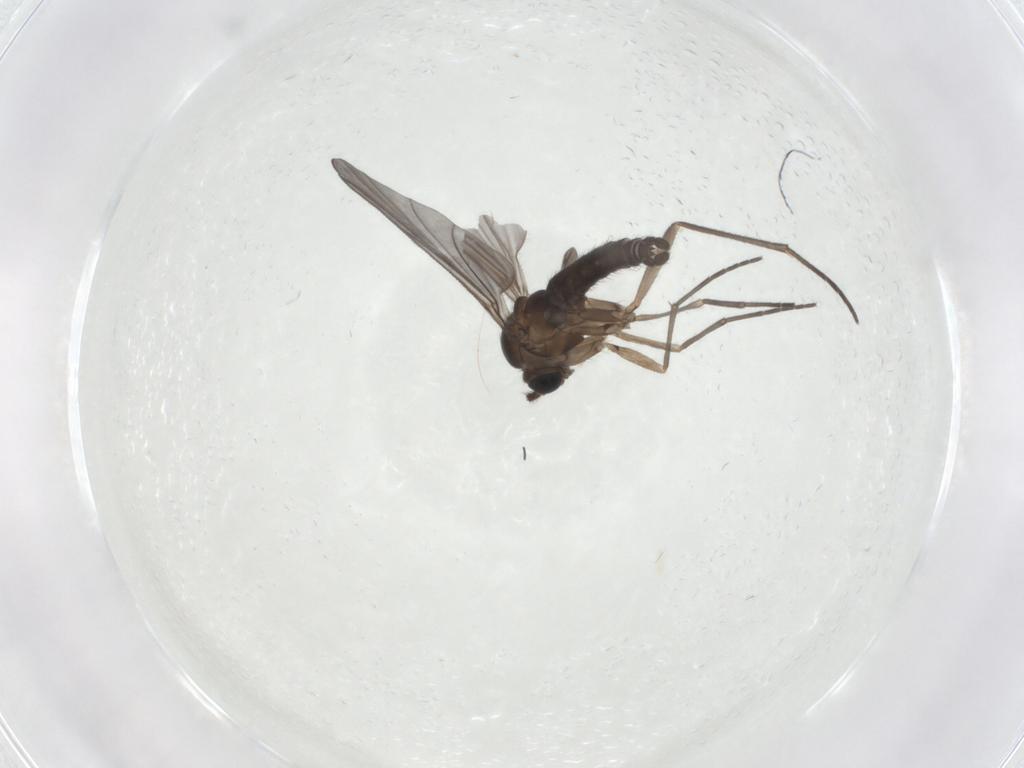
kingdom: Animalia
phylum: Arthropoda
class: Insecta
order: Diptera
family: Sciaridae
